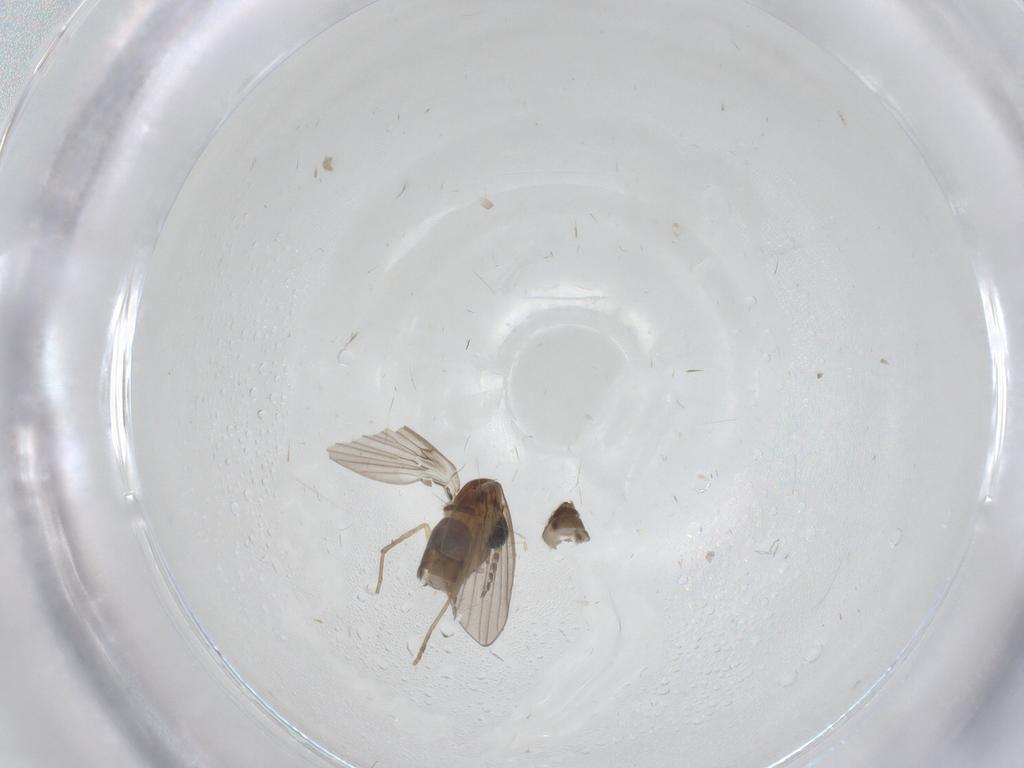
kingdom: Animalia
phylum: Arthropoda
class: Insecta
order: Diptera
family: Cecidomyiidae
